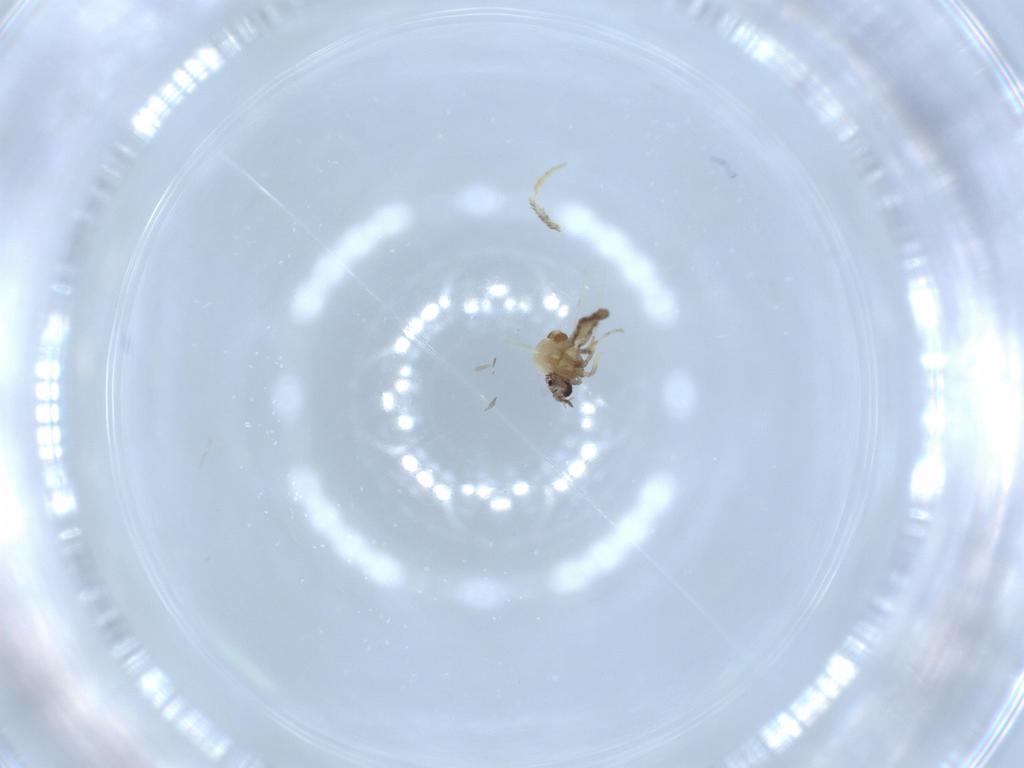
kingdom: Animalia
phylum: Arthropoda
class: Insecta
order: Diptera
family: Ceratopogonidae
